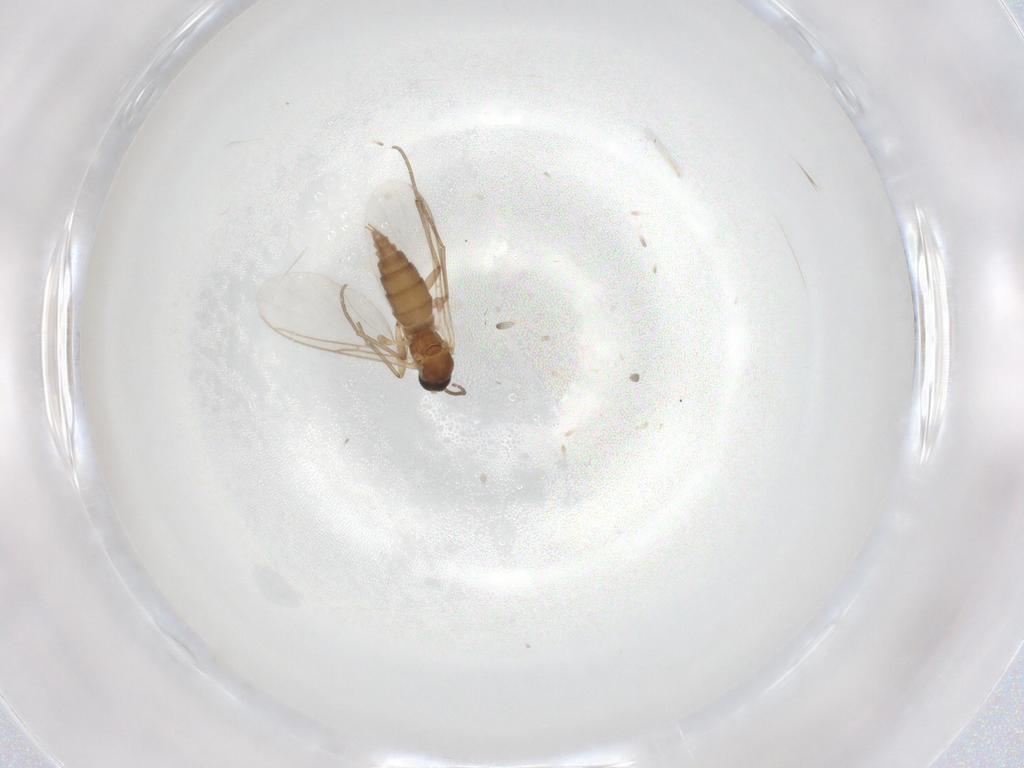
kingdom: Animalia
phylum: Arthropoda
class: Insecta
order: Diptera
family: Sciaridae
